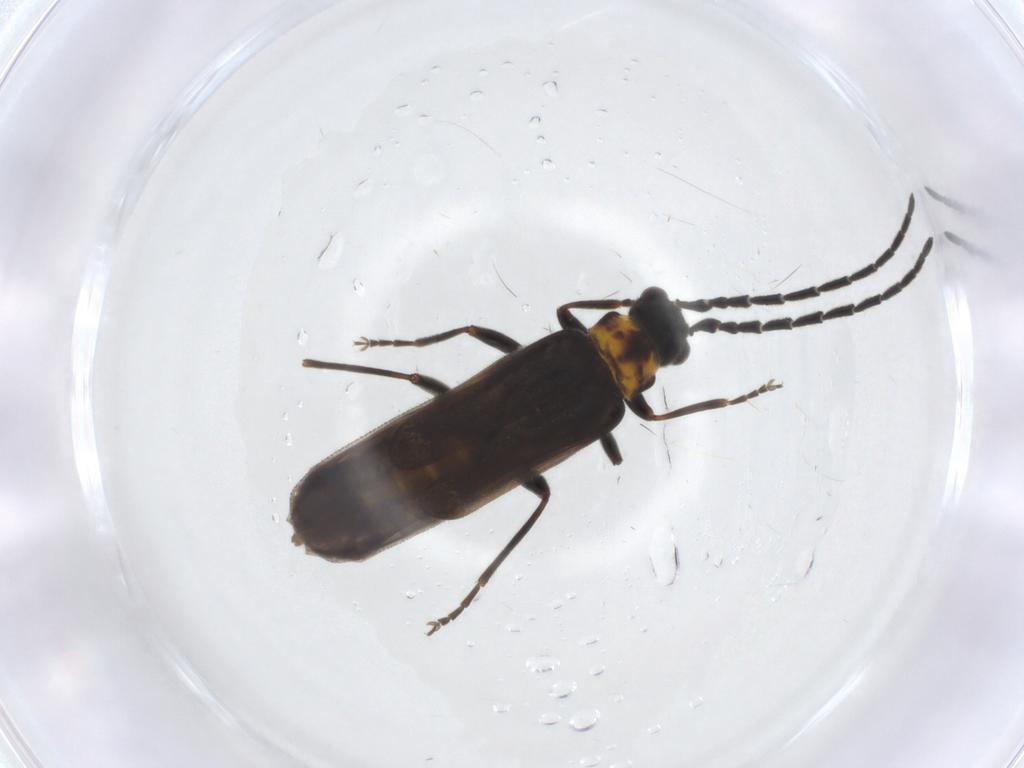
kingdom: Animalia
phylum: Arthropoda
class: Insecta
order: Coleoptera
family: Cantharidae
